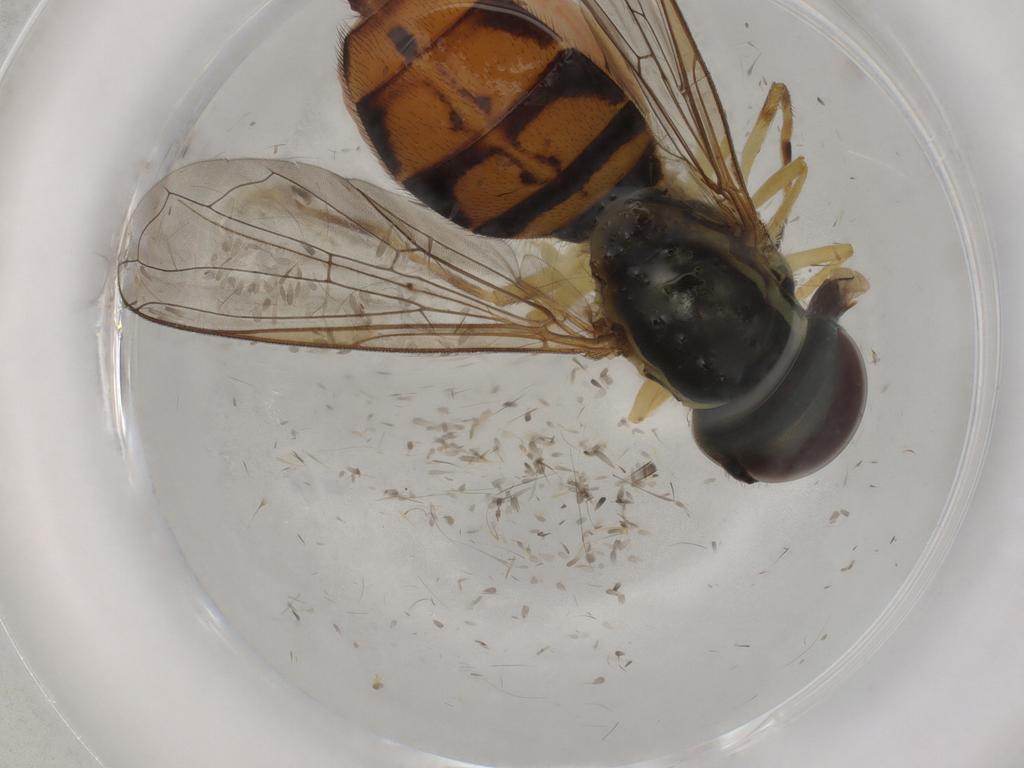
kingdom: Animalia
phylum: Arthropoda
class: Insecta
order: Diptera
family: Syrphidae
